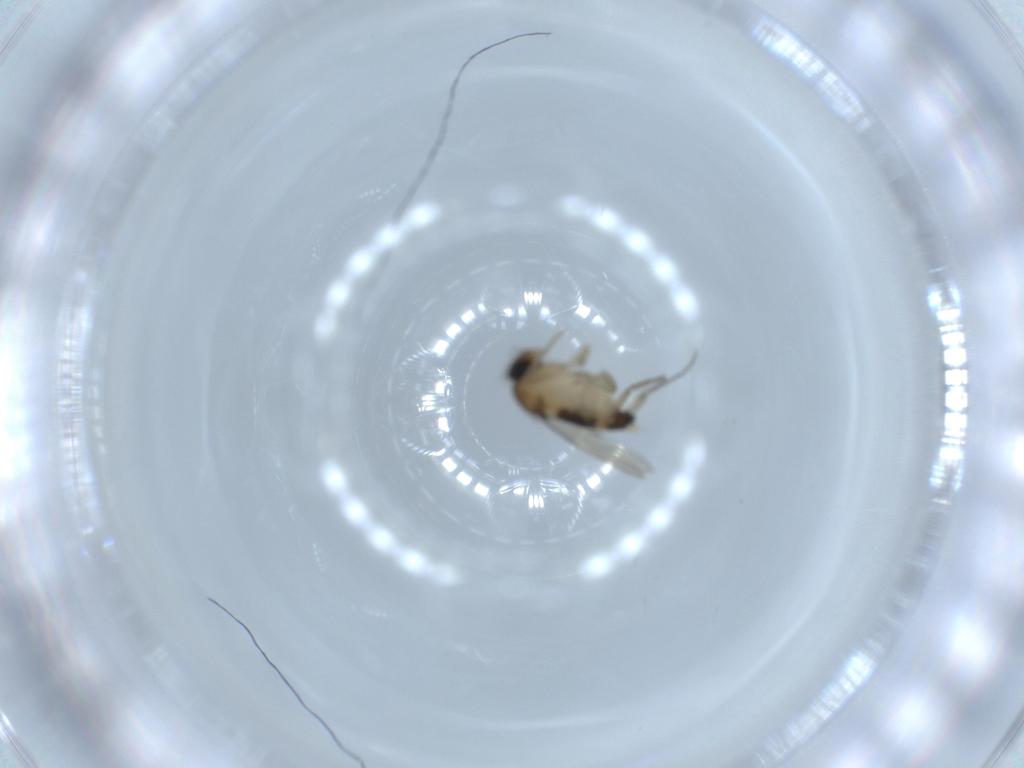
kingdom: Animalia
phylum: Arthropoda
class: Insecta
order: Diptera
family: Phoridae
